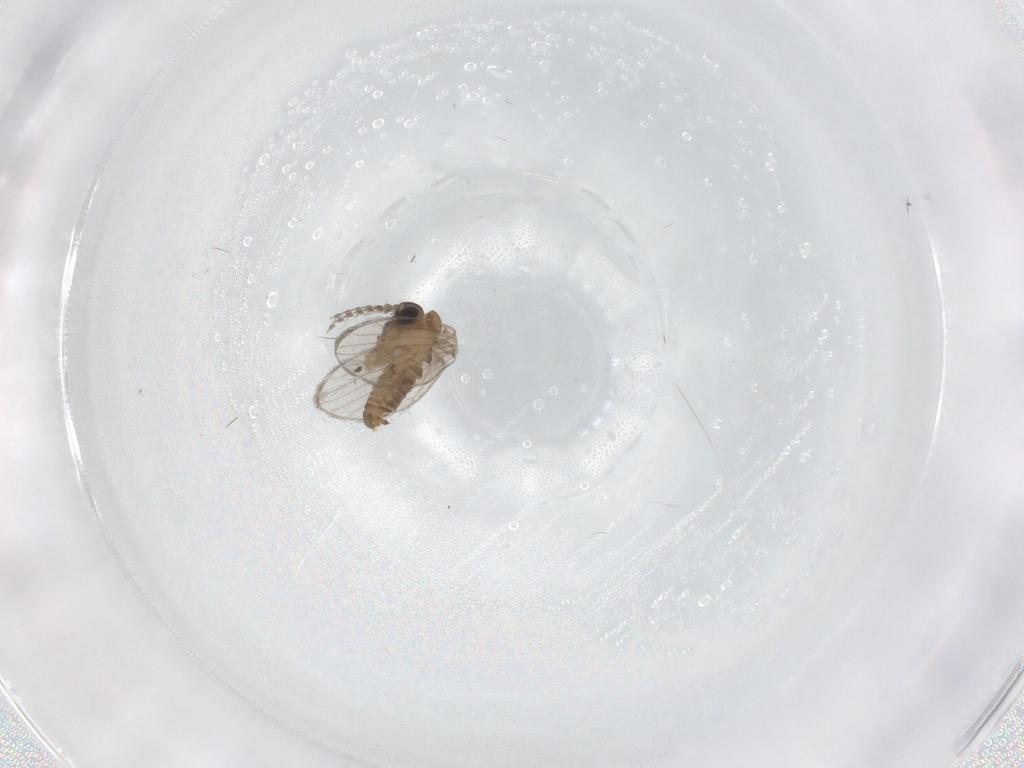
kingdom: Animalia
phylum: Arthropoda
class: Insecta
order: Diptera
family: Psychodidae
